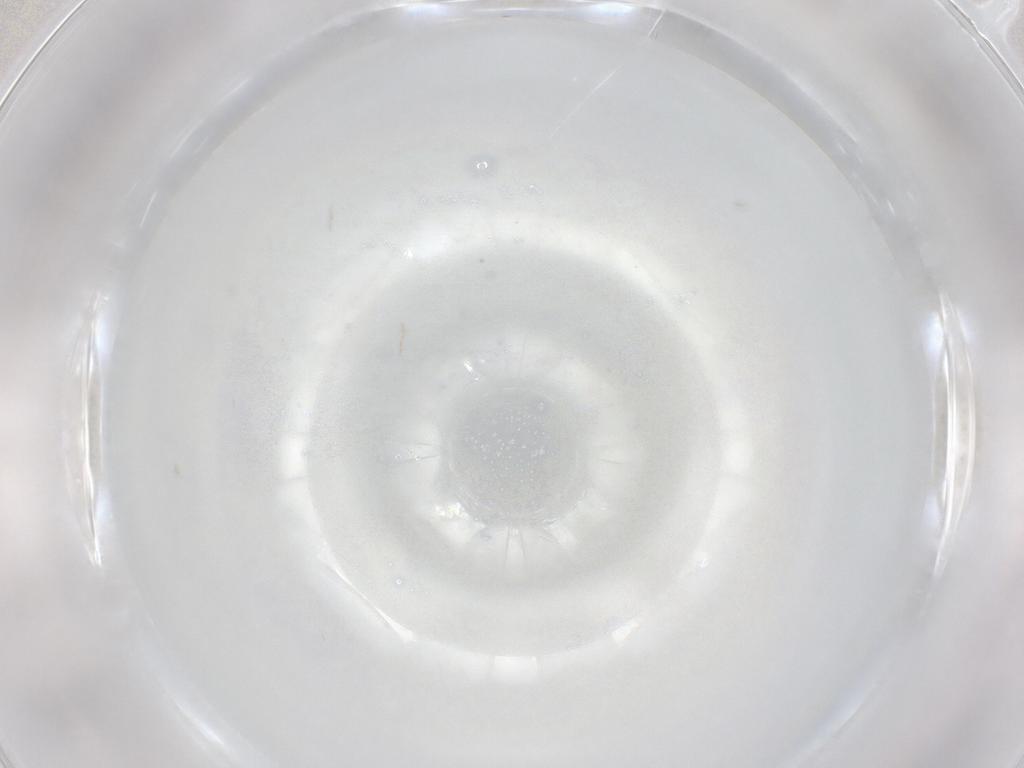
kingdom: Animalia
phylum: Arthropoda
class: Insecta
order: Hemiptera
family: Aleyrodidae
